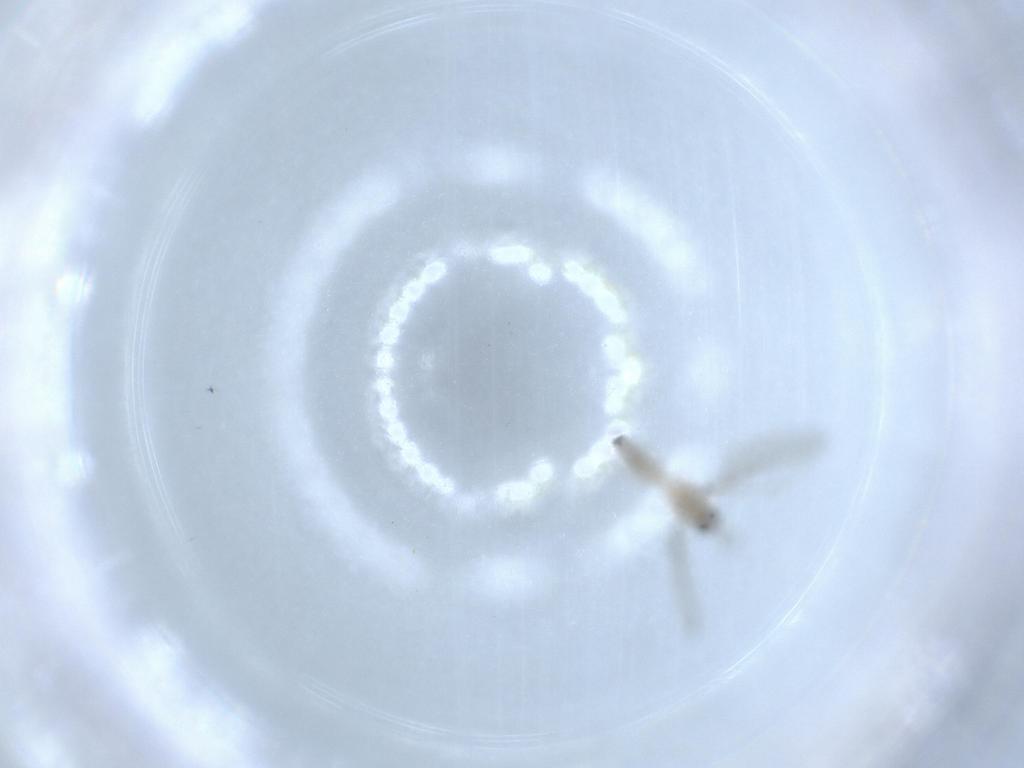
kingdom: Animalia
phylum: Arthropoda
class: Insecta
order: Diptera
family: Cecidomyiidae
